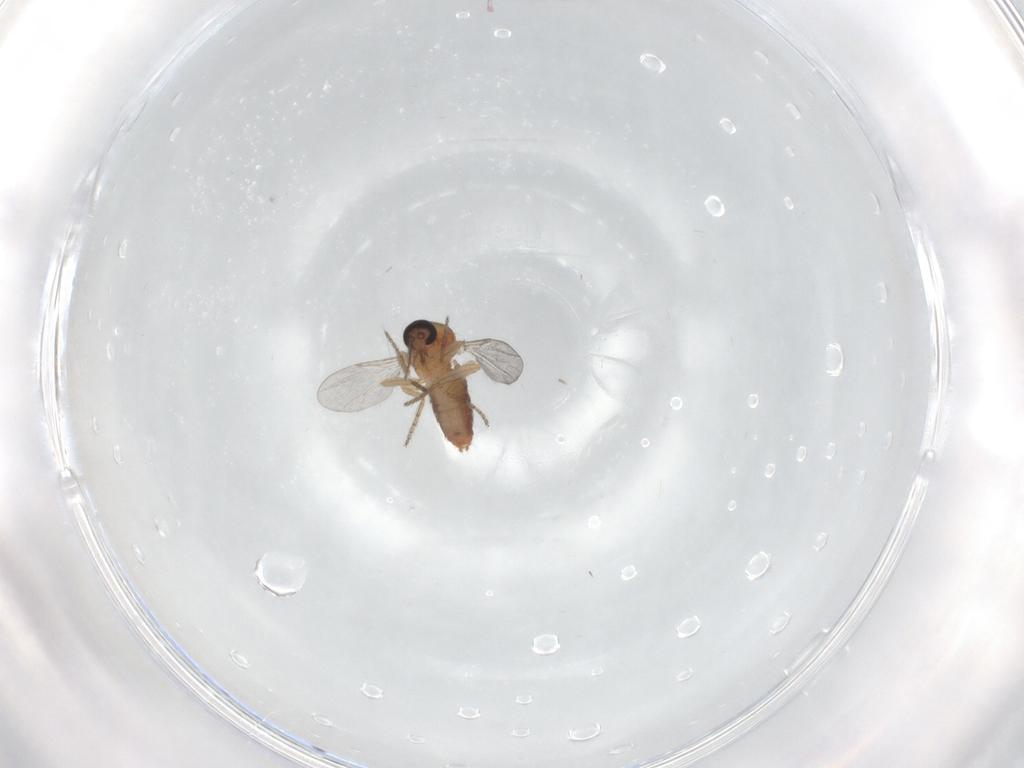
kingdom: Animalia
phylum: Arthropoda
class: Insecta
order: Diptera
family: Ceratopogonidae
